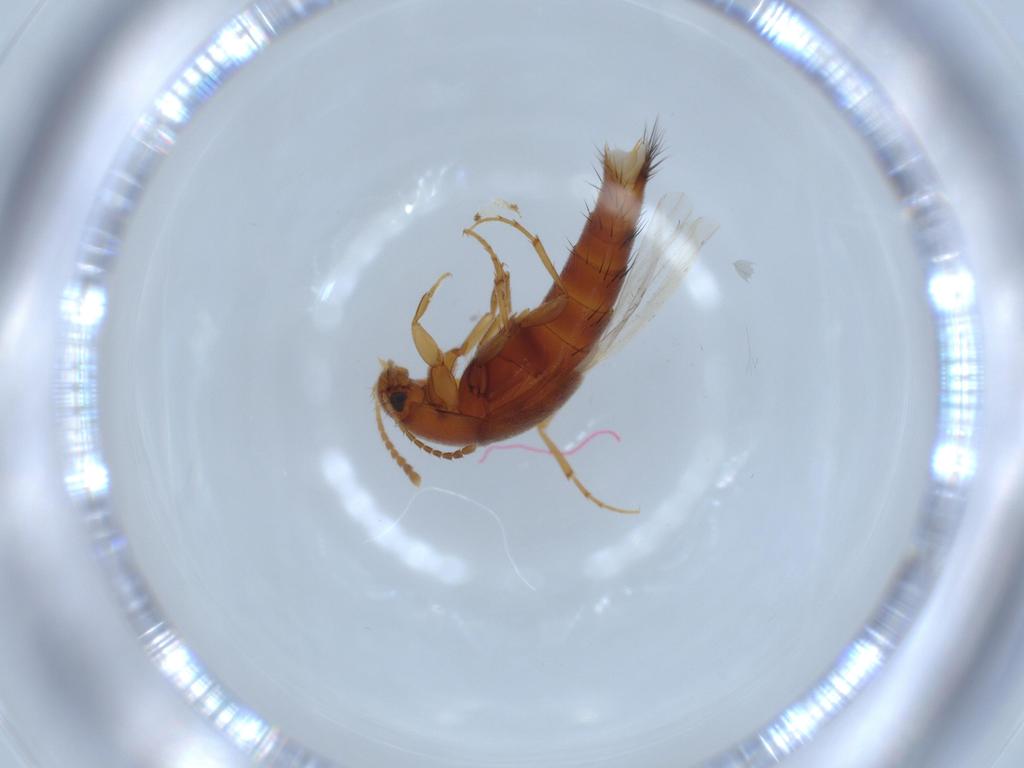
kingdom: Animalia
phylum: Arthropoda
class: Insecta
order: Coleoptera
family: Staphylinidae
